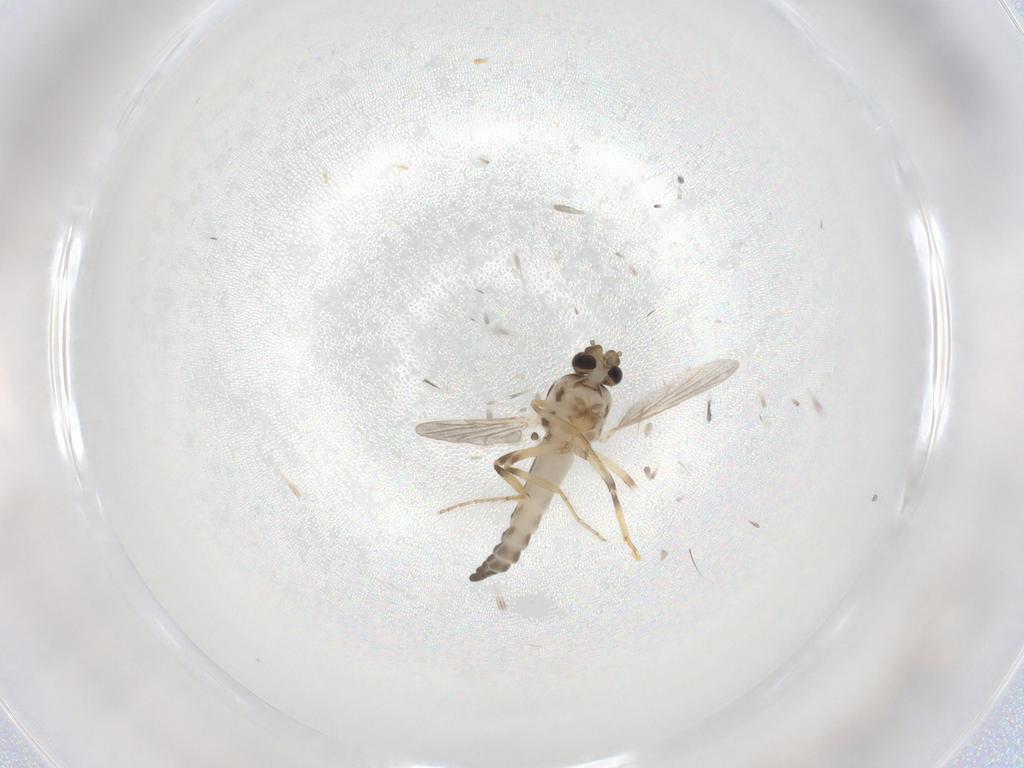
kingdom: Animalia
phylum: Arthropoda
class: Insecta
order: Diptera
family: Ceratopogonidae
